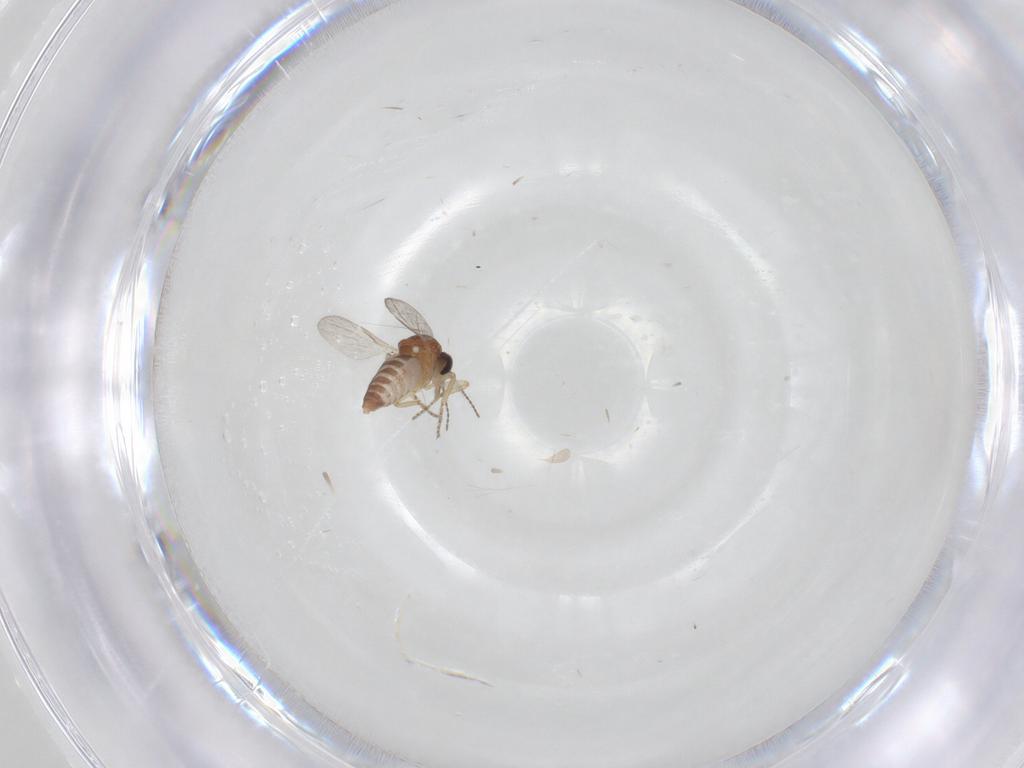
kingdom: Animalia
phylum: Arthropoda
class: Insecta
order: Diptera
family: Ceratopogonidae
